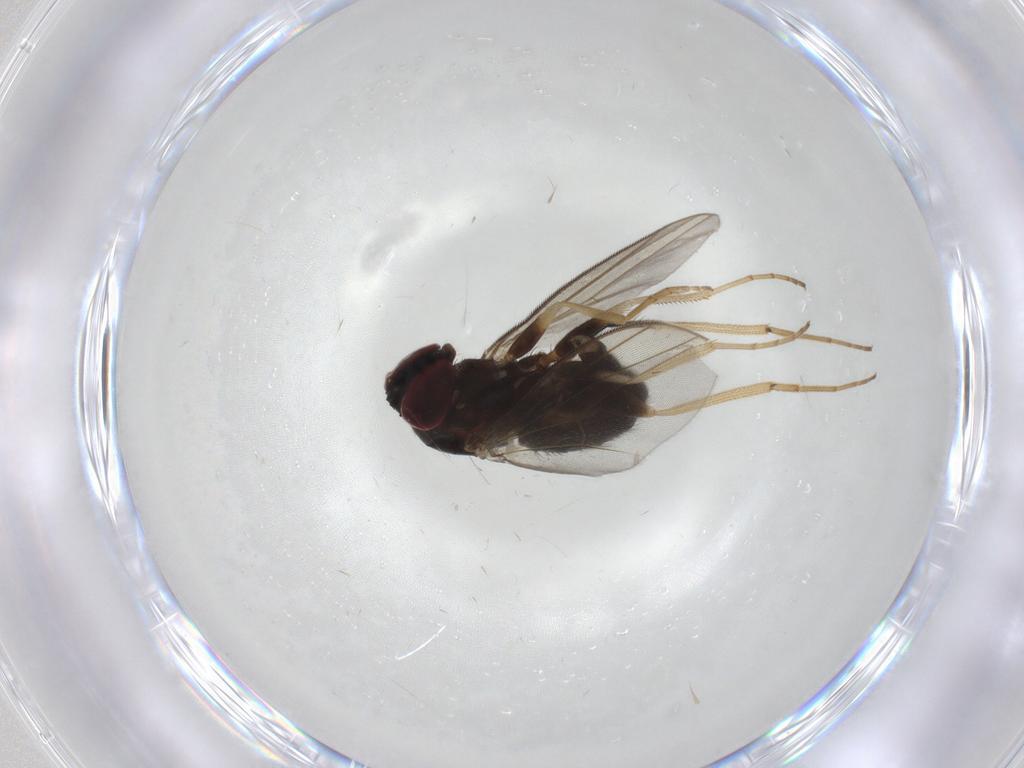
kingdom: Animalia
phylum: Arthropoda
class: Insecta
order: Diptera
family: Dolichopodidae
